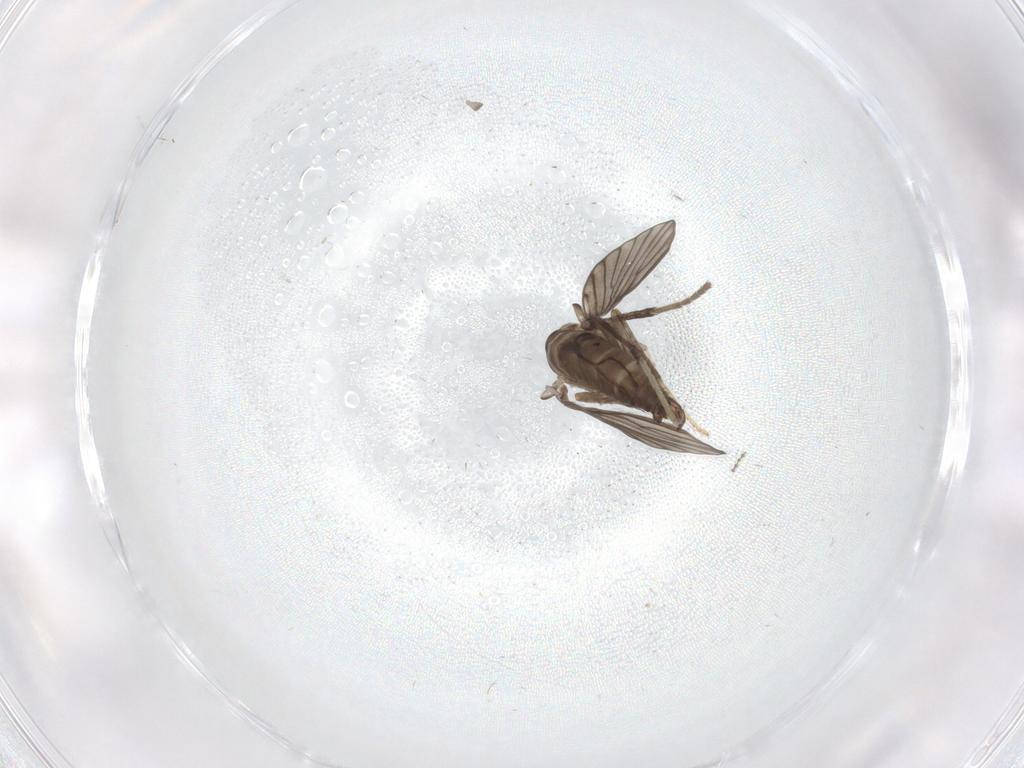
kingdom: Animalia
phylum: Arthropoda
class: Insecta
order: Diptera
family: Psychodidae
